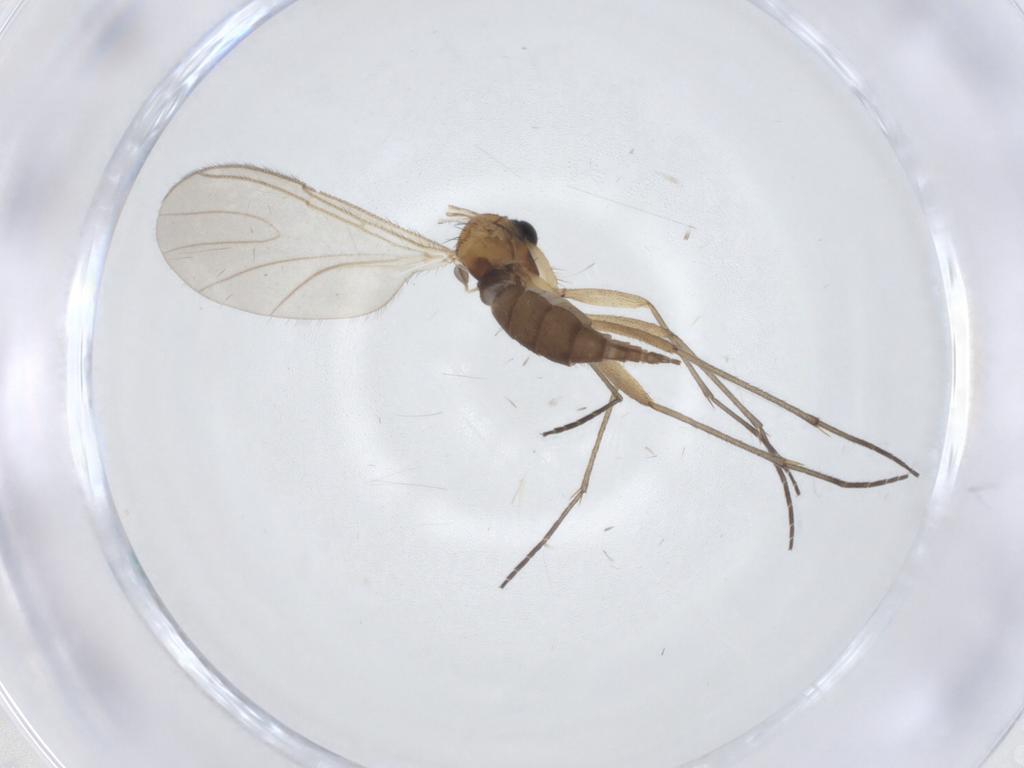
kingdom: Animalia
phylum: Arthropoda
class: Insecta
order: Diptera
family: Sciaridae
